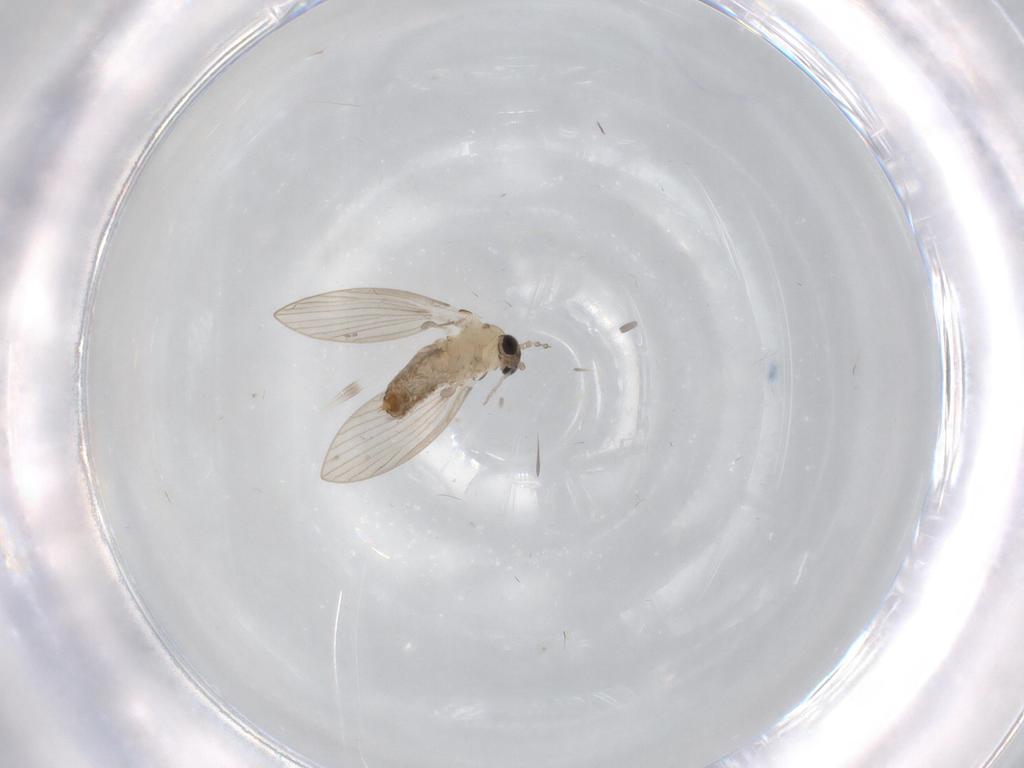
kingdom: Animalia
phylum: Arthropoda
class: Insecta
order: Diptera
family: Psychodidae
